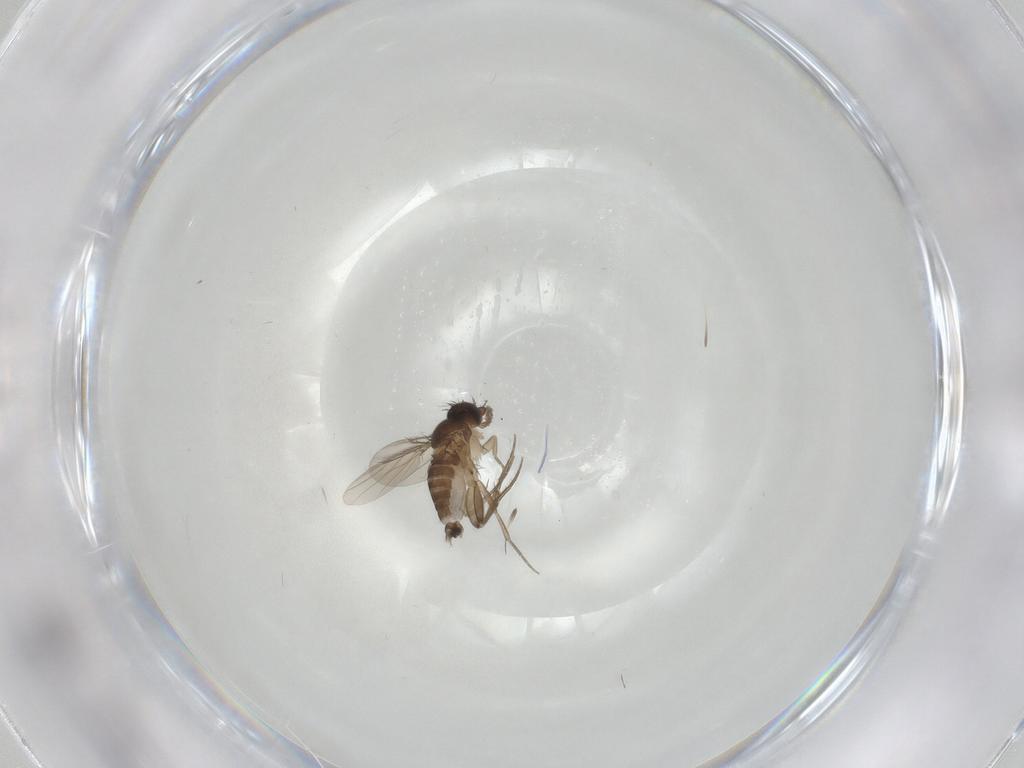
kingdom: Animalia
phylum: Arthropoda
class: Insecta
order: Diptera
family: Phoridae
